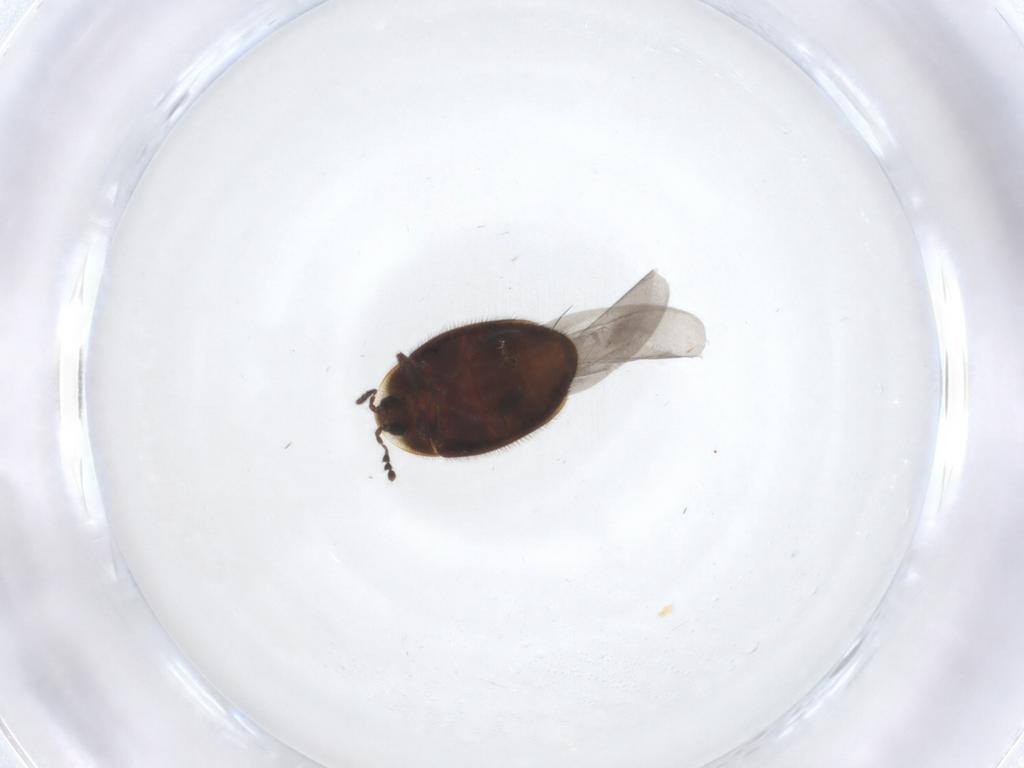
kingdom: Animalia
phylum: Arthropoda
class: Insecta
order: Coleoptera
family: Corylophidae
